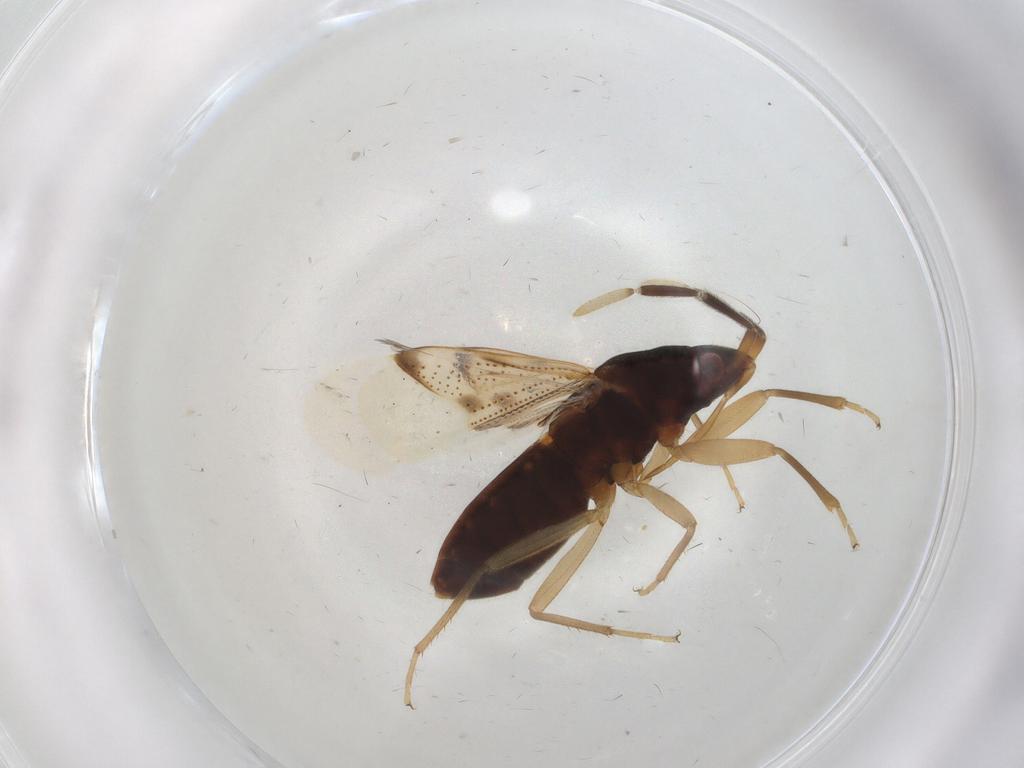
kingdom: Animalia
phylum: Arthropoda
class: Insecta
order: Hemiptera
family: Rhyparochromidae
